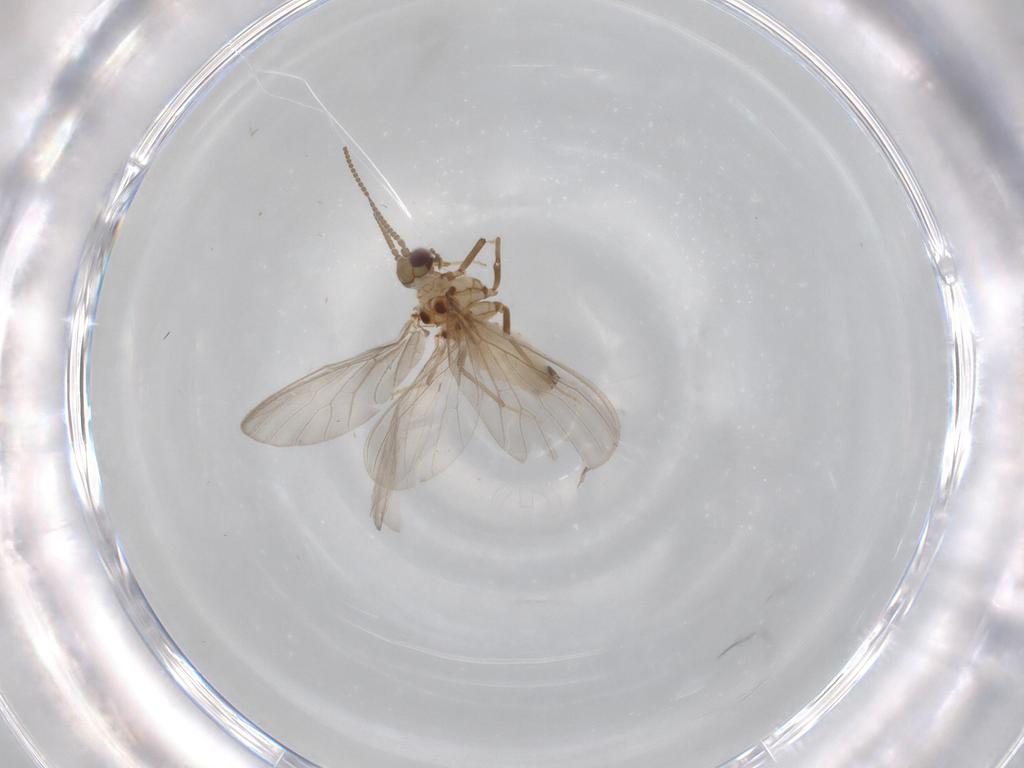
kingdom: Animalia
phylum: Arthropoda
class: Insecta
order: Neuroptera
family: Coniopterygidae
